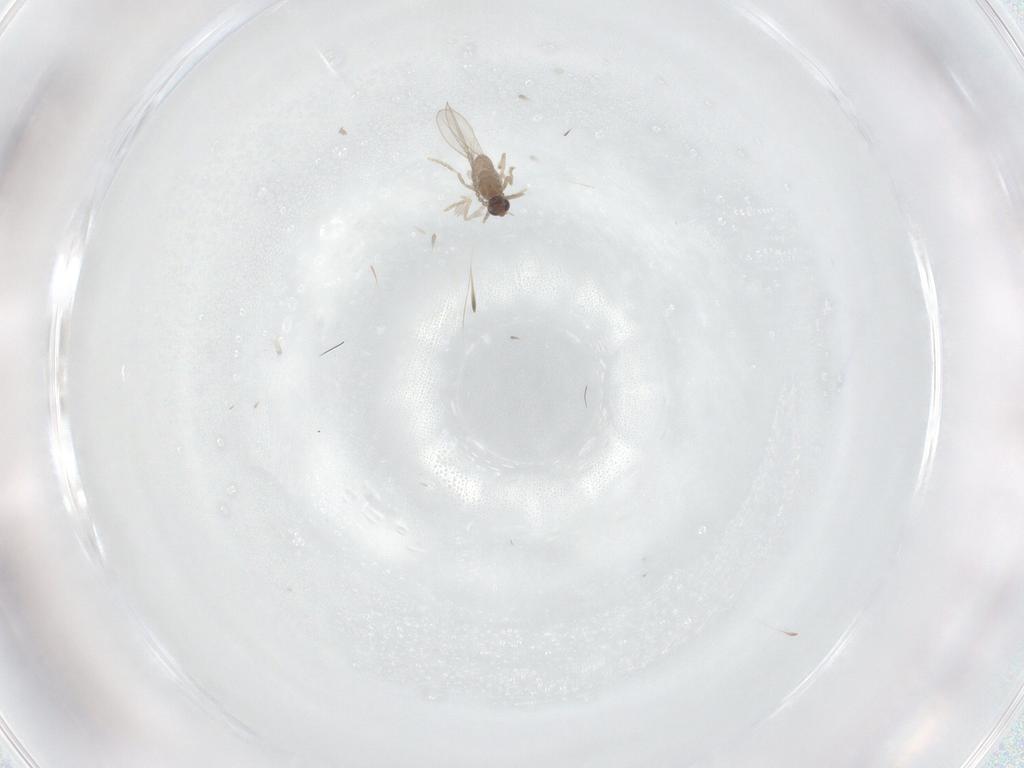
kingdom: Animalia
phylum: Arthropoda
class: Insecta
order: Diptera
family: Cecidomyiidae
